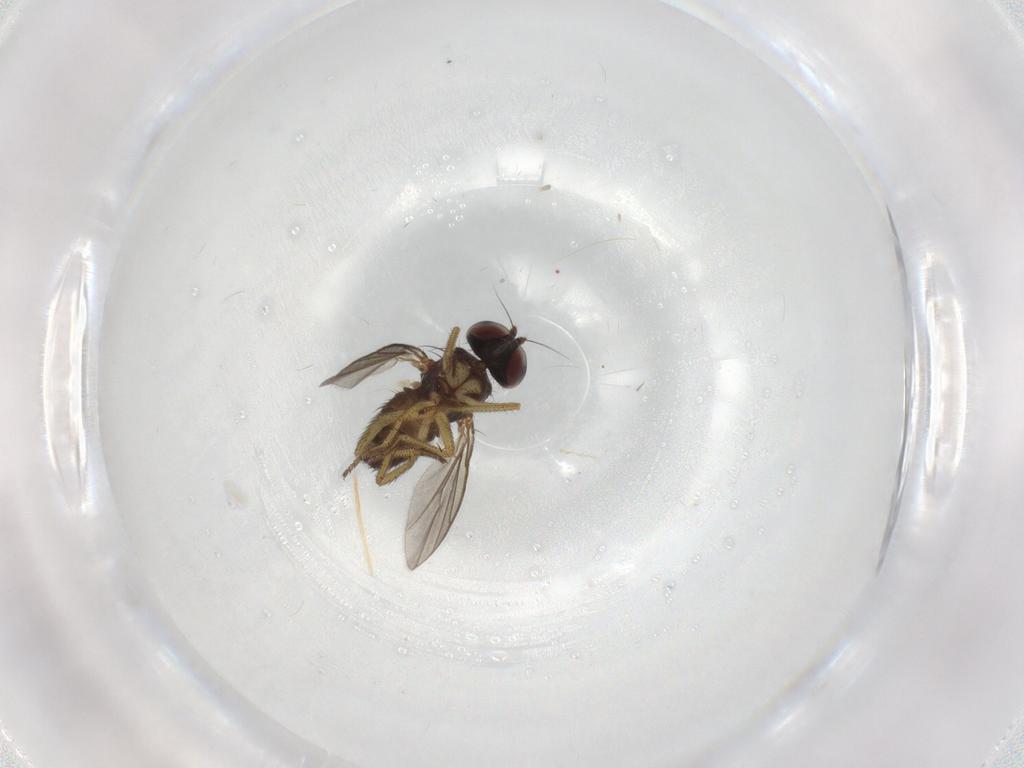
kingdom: Animalia
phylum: Arthropoda
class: Insecta
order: Diptera
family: Dolichopodidae
